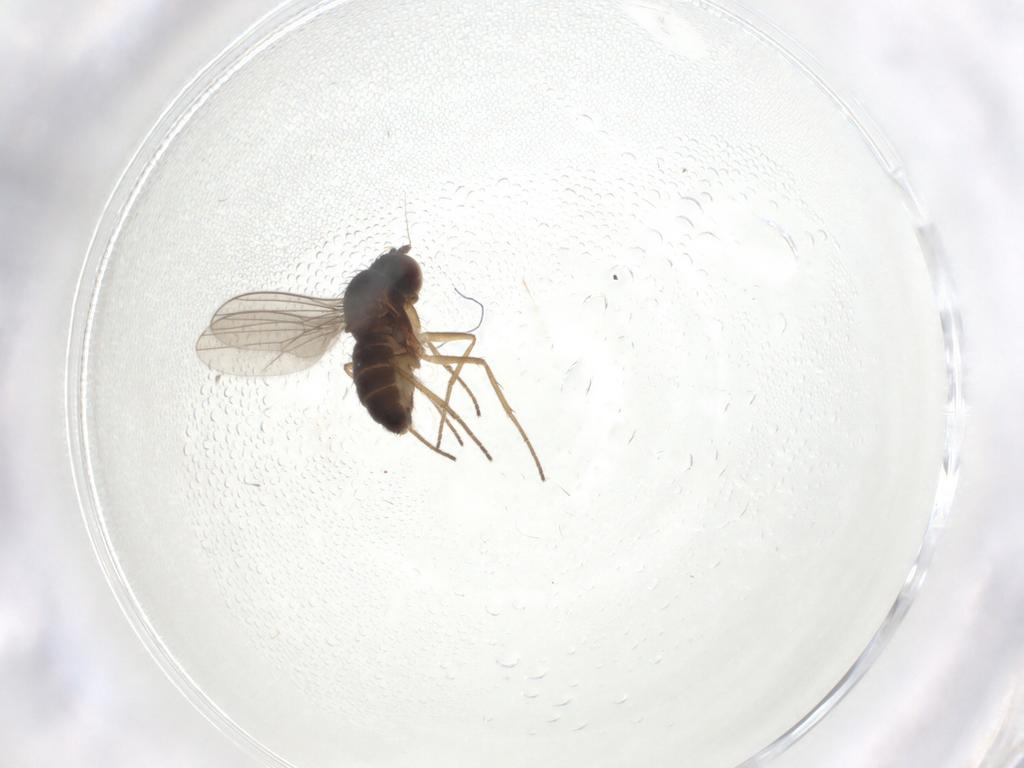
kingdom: Animalia
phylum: Arthropoda
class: Insecta
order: Diptera
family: Dolichopodidae
